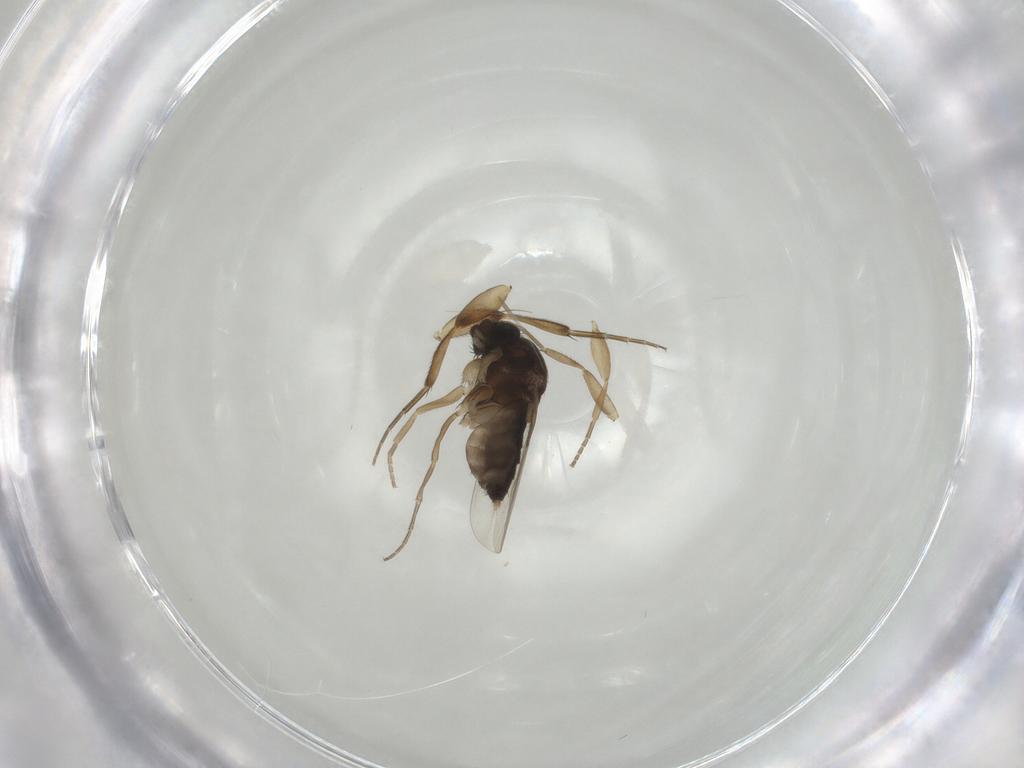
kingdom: Animalia
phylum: Arthropoda
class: Insecta
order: Diptera
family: Phoridae
